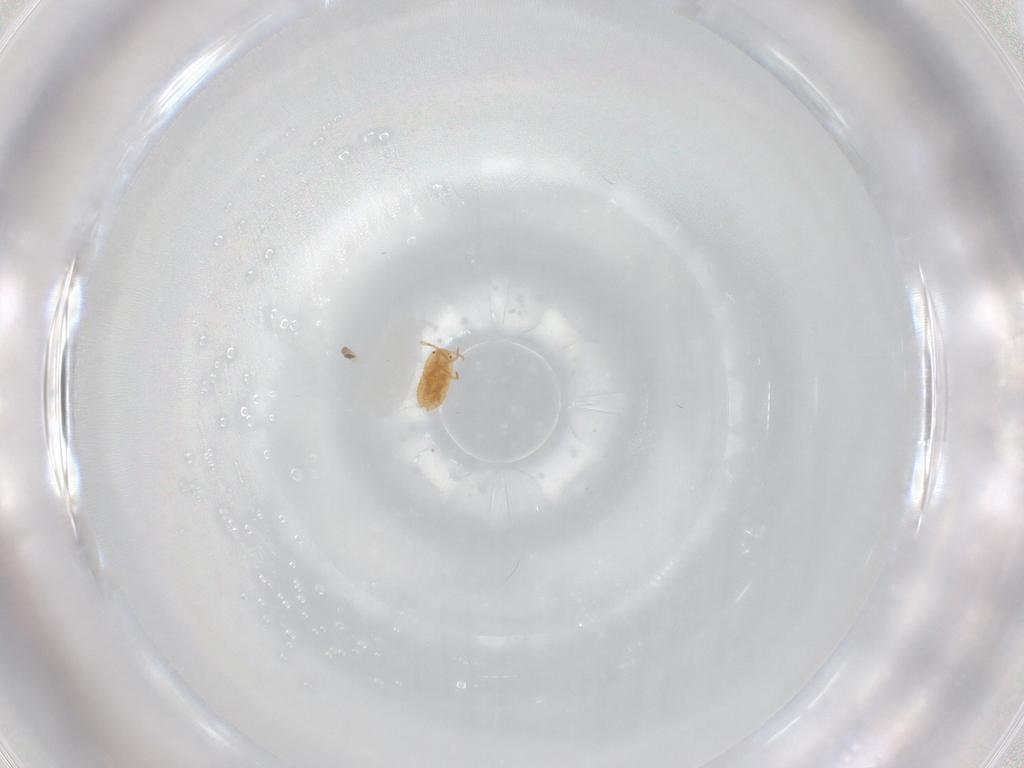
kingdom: Animalia
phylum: Arthropoda
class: Insecta
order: Hemiptera
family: Pseudococcidae
